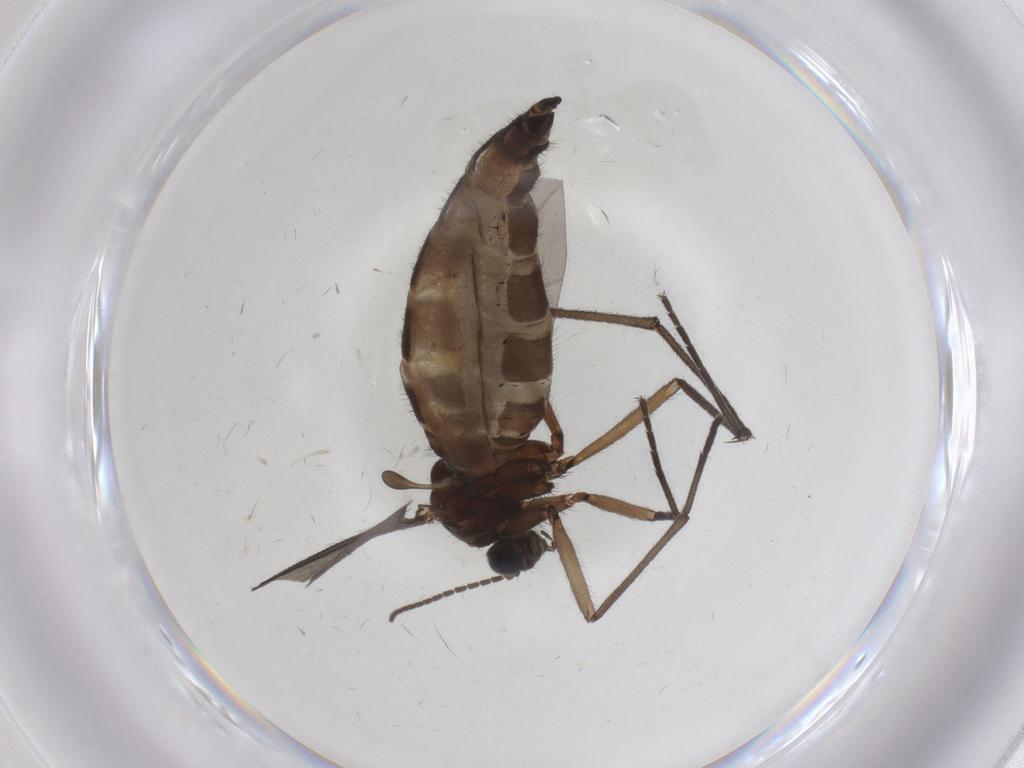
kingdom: Animalia
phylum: Arthropoda
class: Insecta
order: Diptera
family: Sciaridae
